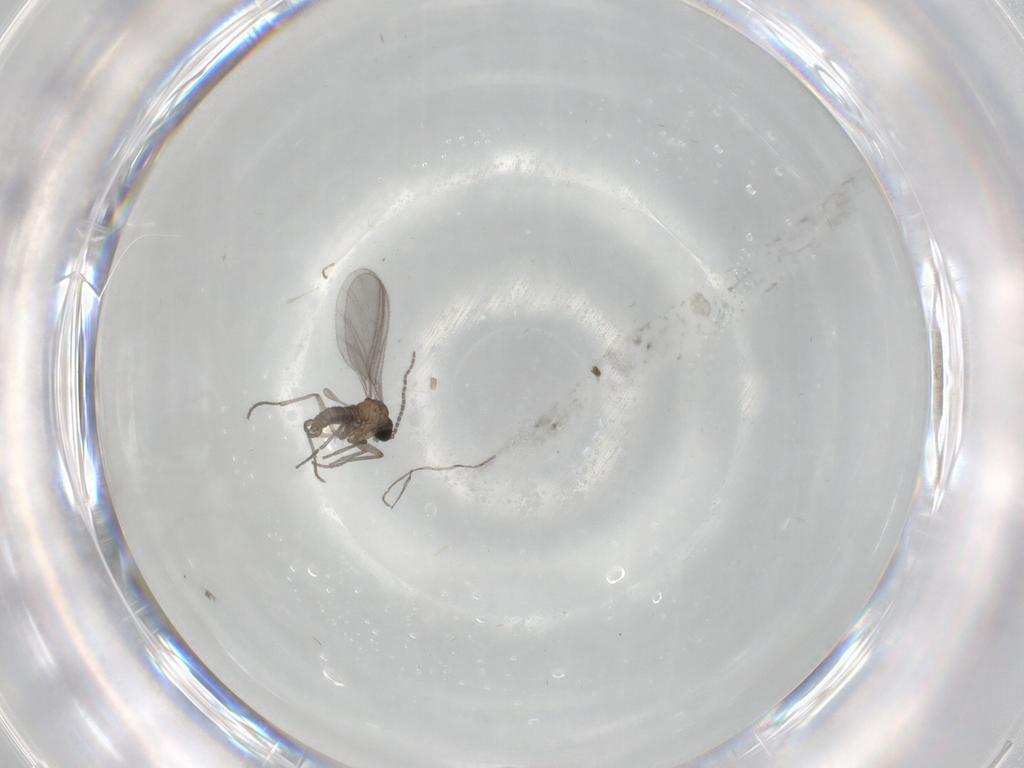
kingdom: Animalia
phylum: Arthropoda
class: Insecta
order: Diptera
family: Sciaridae
